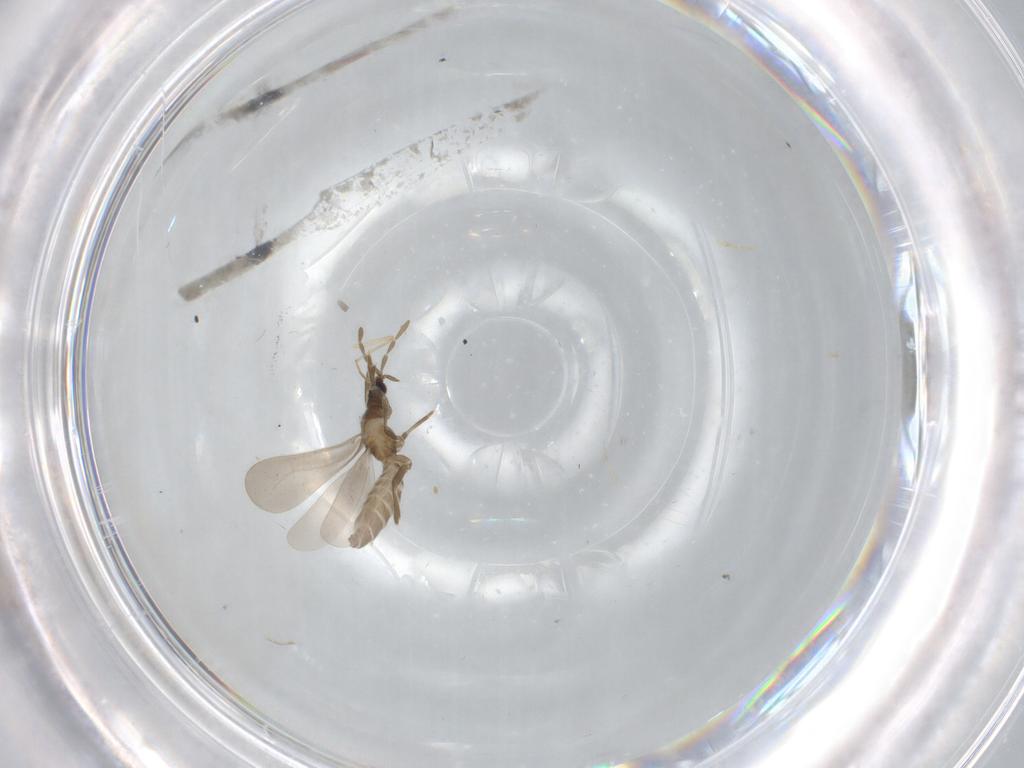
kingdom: Animalia
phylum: Arthropoda
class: Insecta
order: Hemiptera
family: Enicocephalidae
